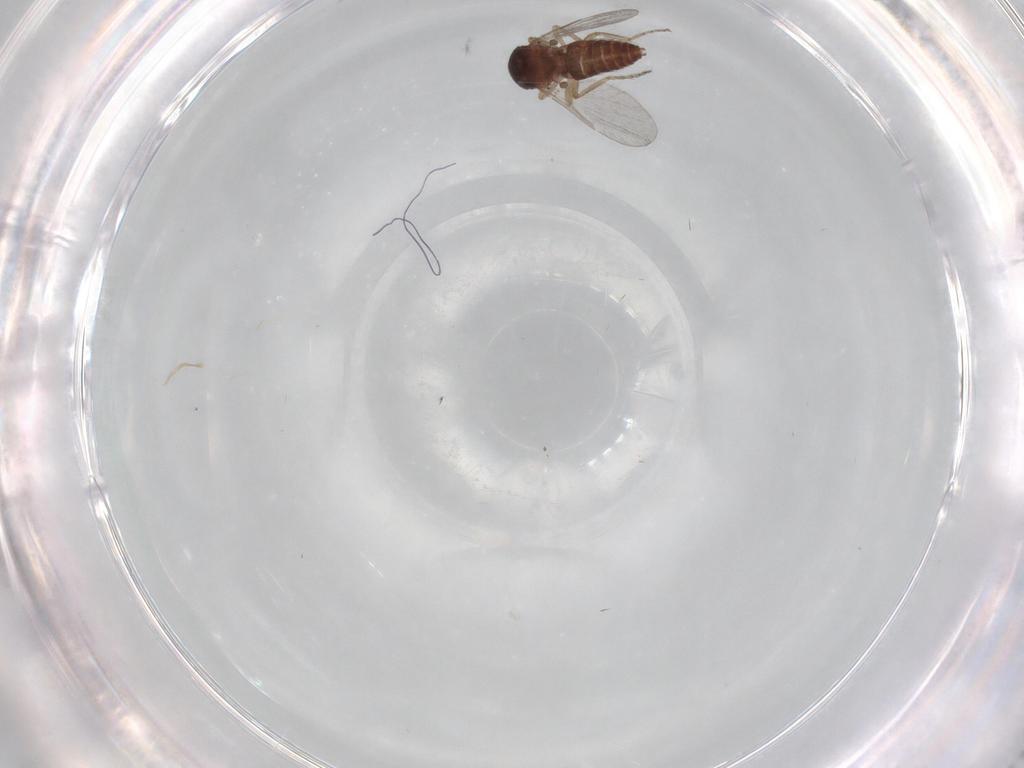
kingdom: Animalia
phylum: Arthropoda
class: Insecta
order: Diptera
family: Ceratopogonidae
